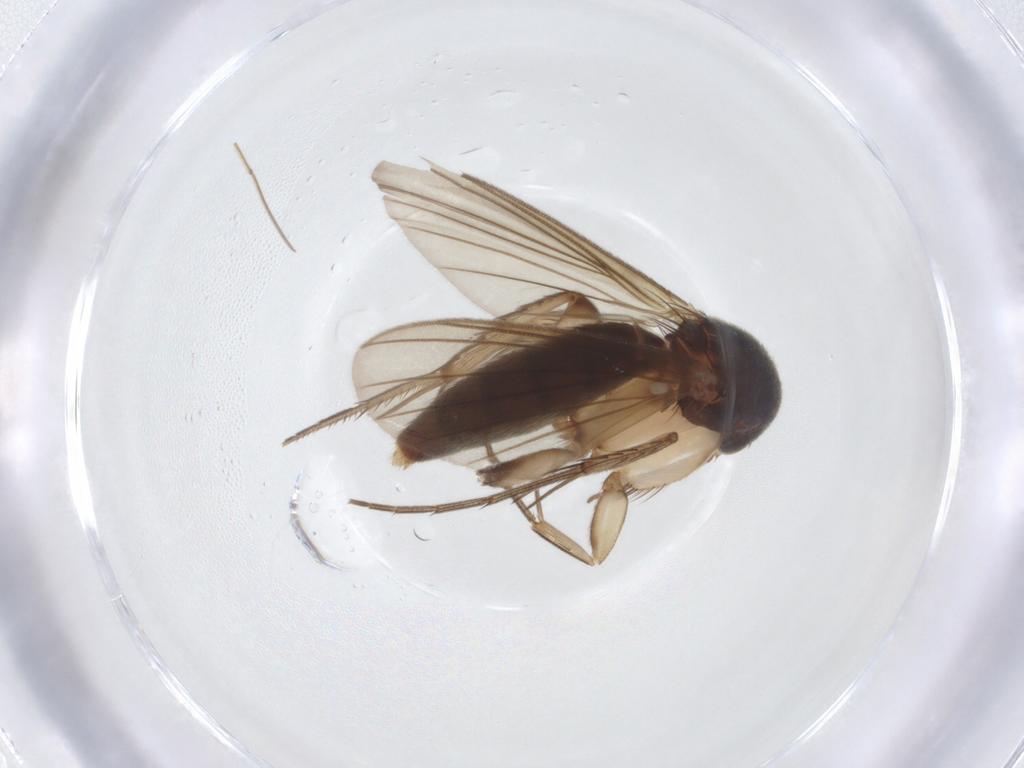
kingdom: Animalia
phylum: Arthropoda
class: Insecta
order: Diptera
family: Mycetophilidae
